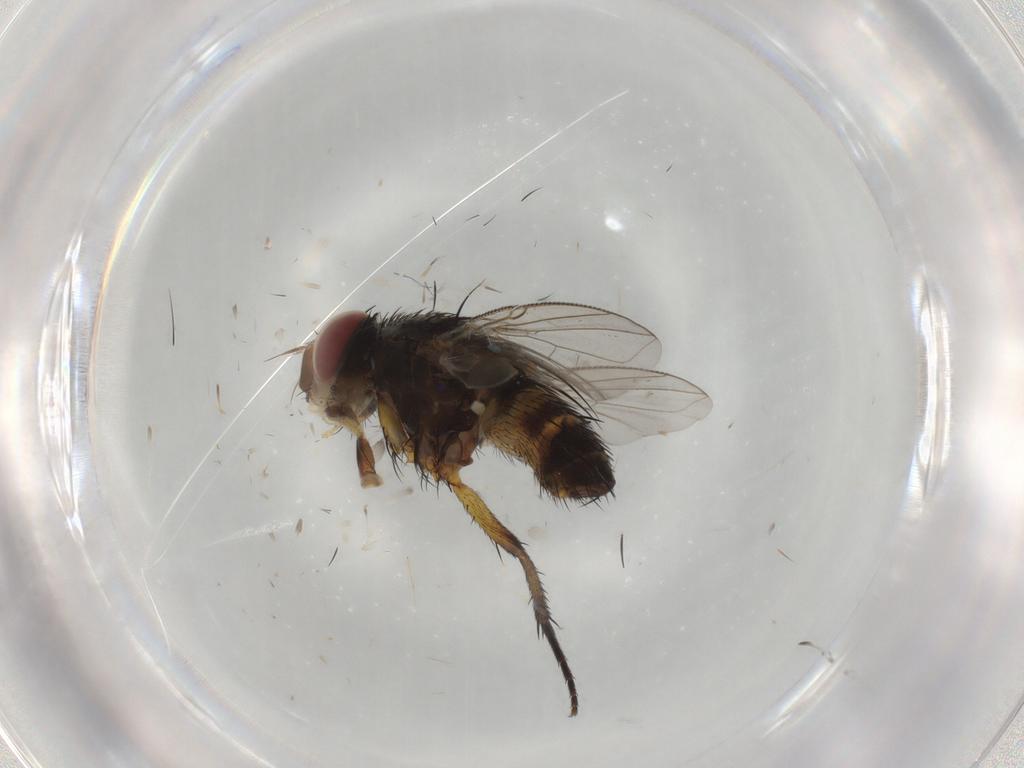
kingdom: Animalia
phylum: Arthropoda
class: Insecta
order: Diptera
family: Tachinidae
